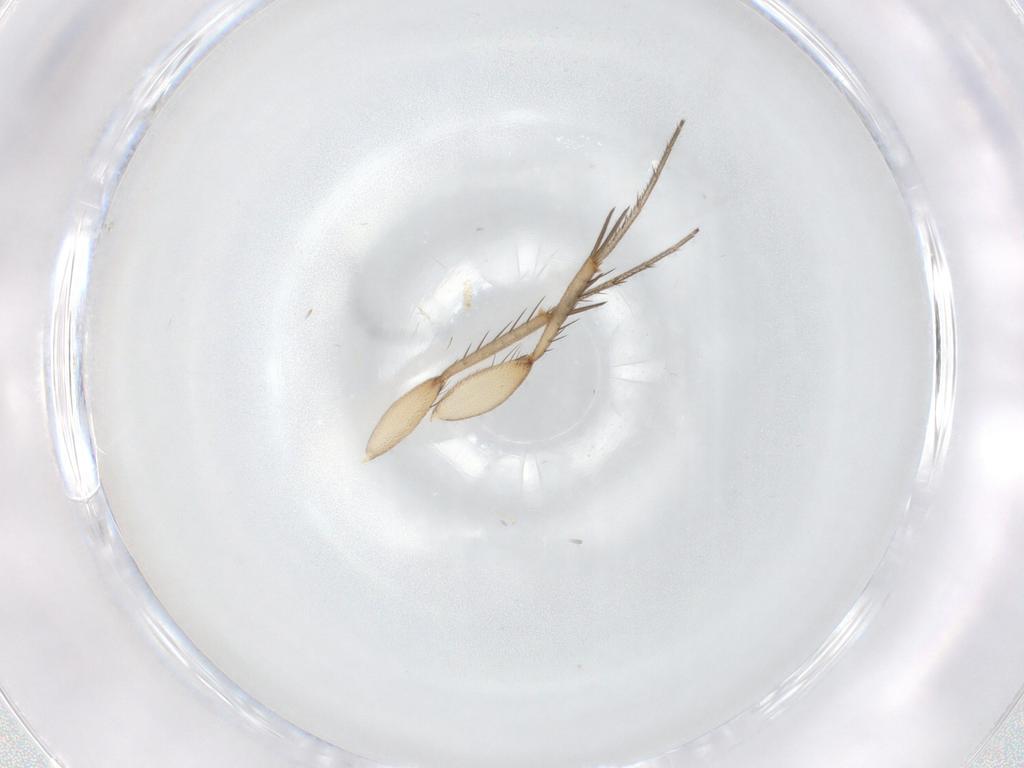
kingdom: Animalia
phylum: Arthropoda
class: Insecta
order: Diptera
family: Mycetophilidae
